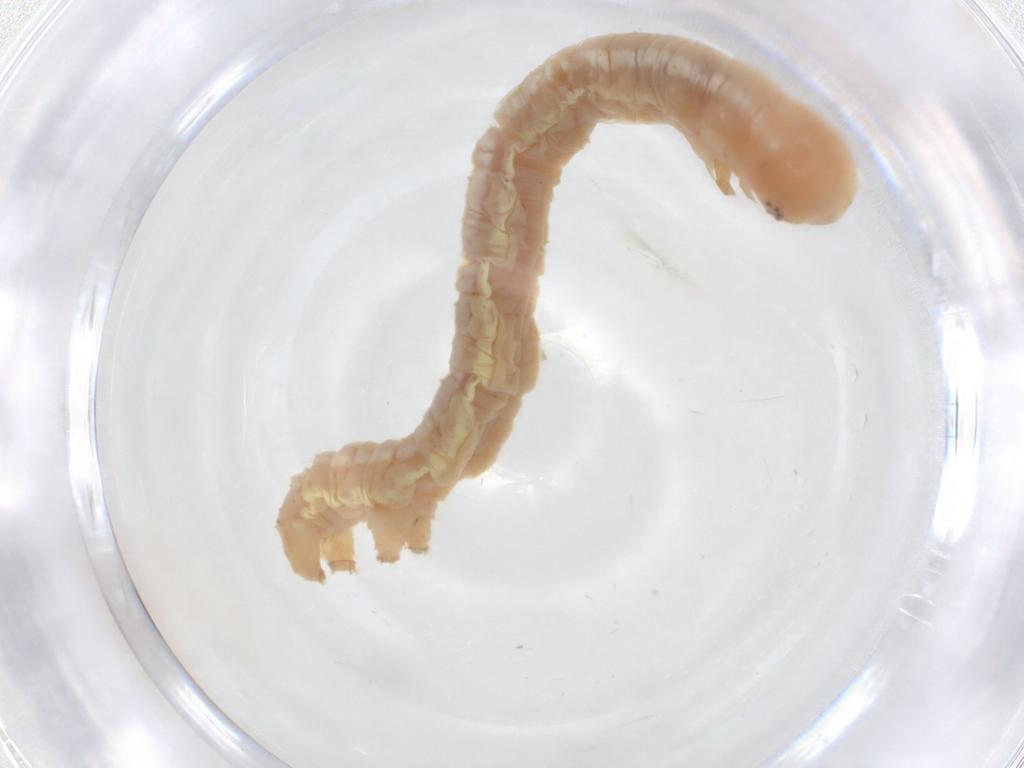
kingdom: Animalia
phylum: Arthropoda
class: Insecta
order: Lepidoptera
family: Geometridae
